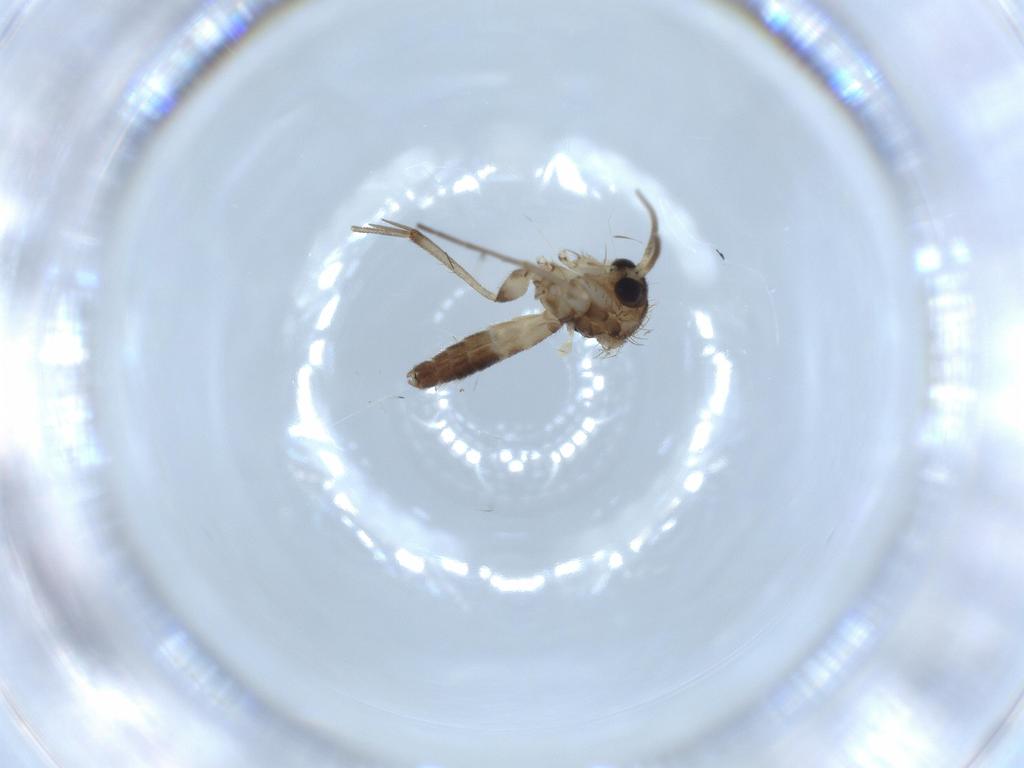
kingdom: Animalia
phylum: Arthropoda
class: Insecta
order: Diptera
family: Mycetophilidae
